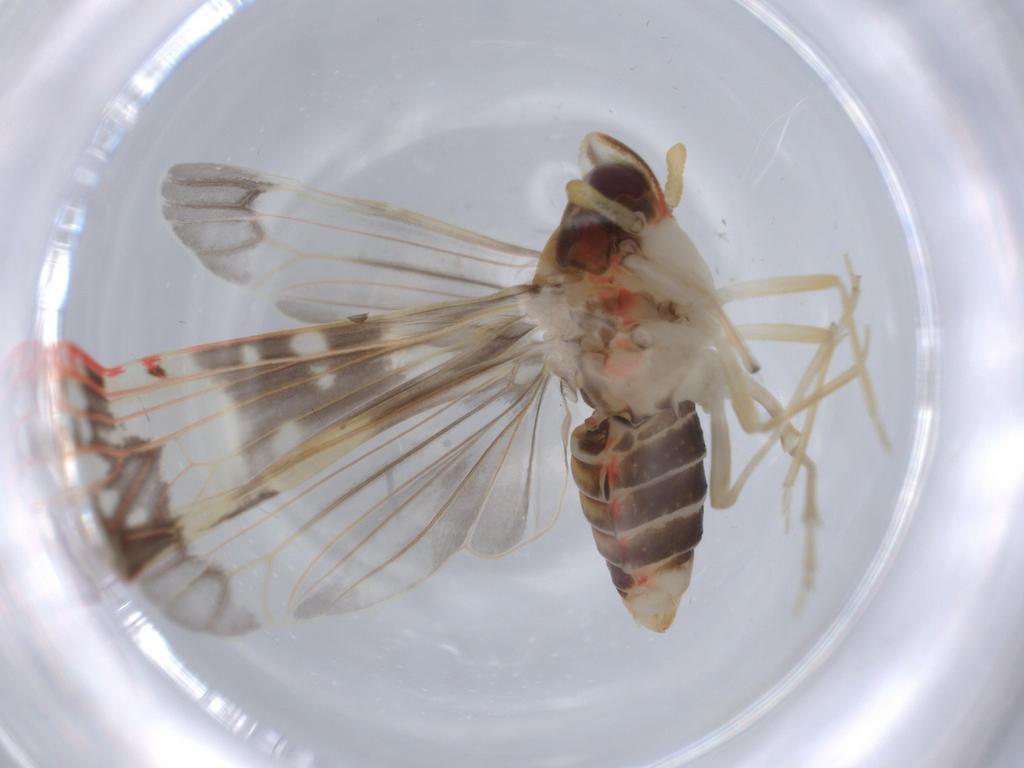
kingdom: Animalia
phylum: Arthropoda
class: Insecta
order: Hemiptera
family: Derbidae
